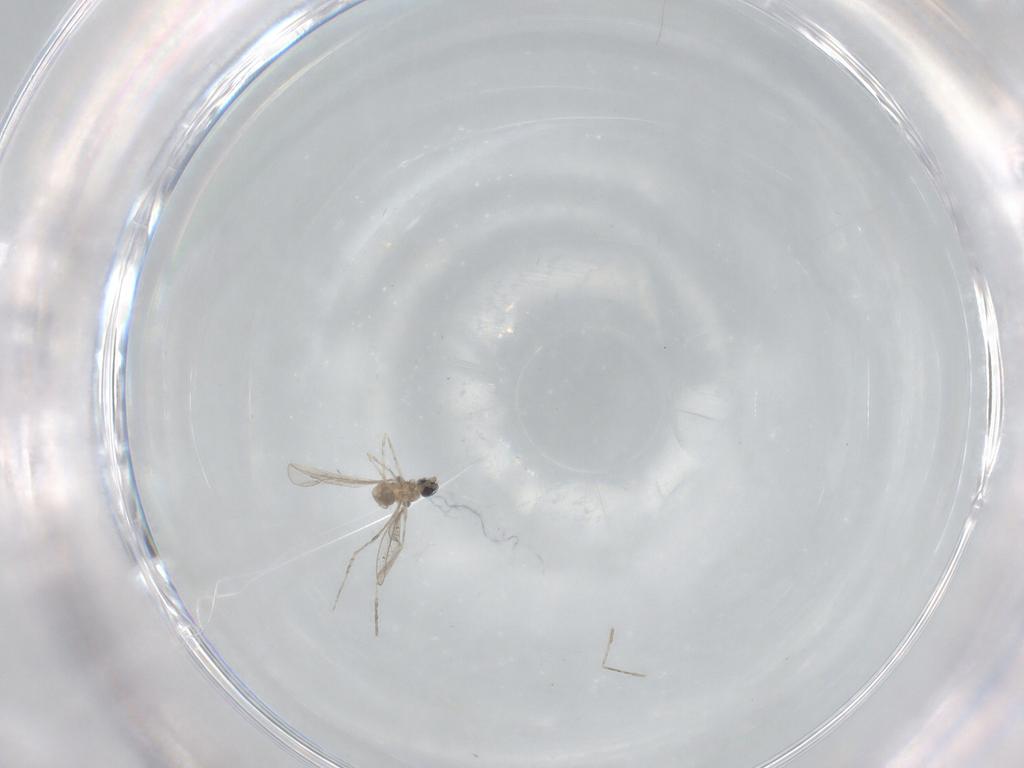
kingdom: Animalia
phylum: Arthropoda
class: Insecta
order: Diptera
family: Cecidomyiidae
